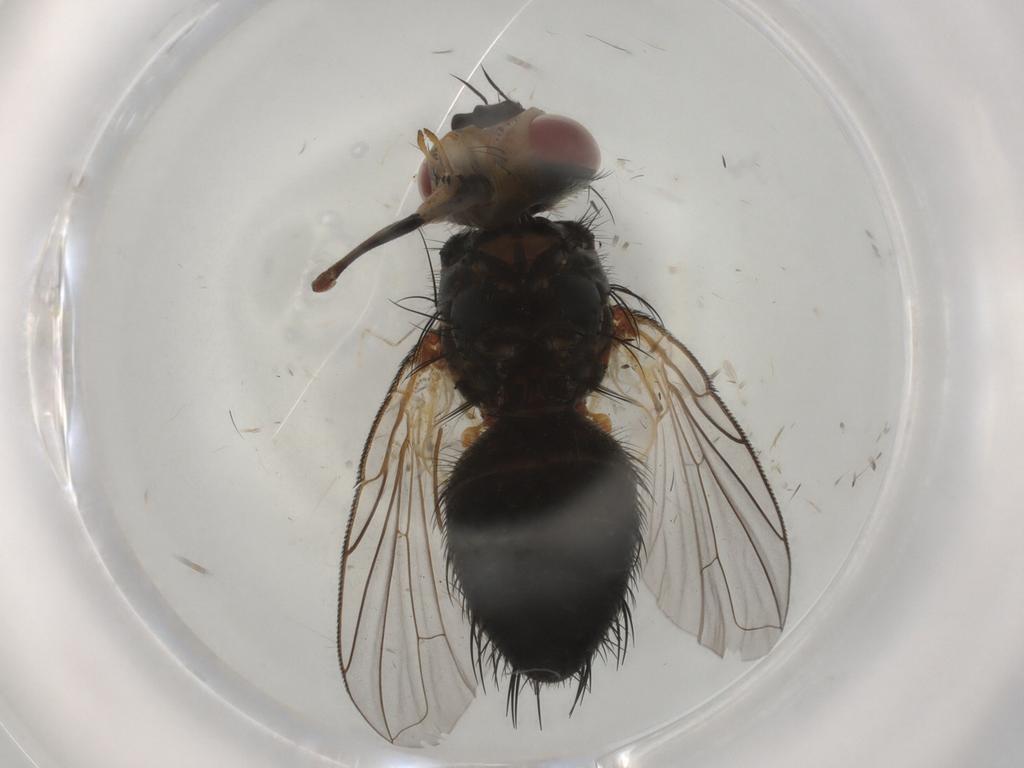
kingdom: Animalia
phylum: Arthropoda
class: Insecta
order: Diptera
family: Tachinidae
